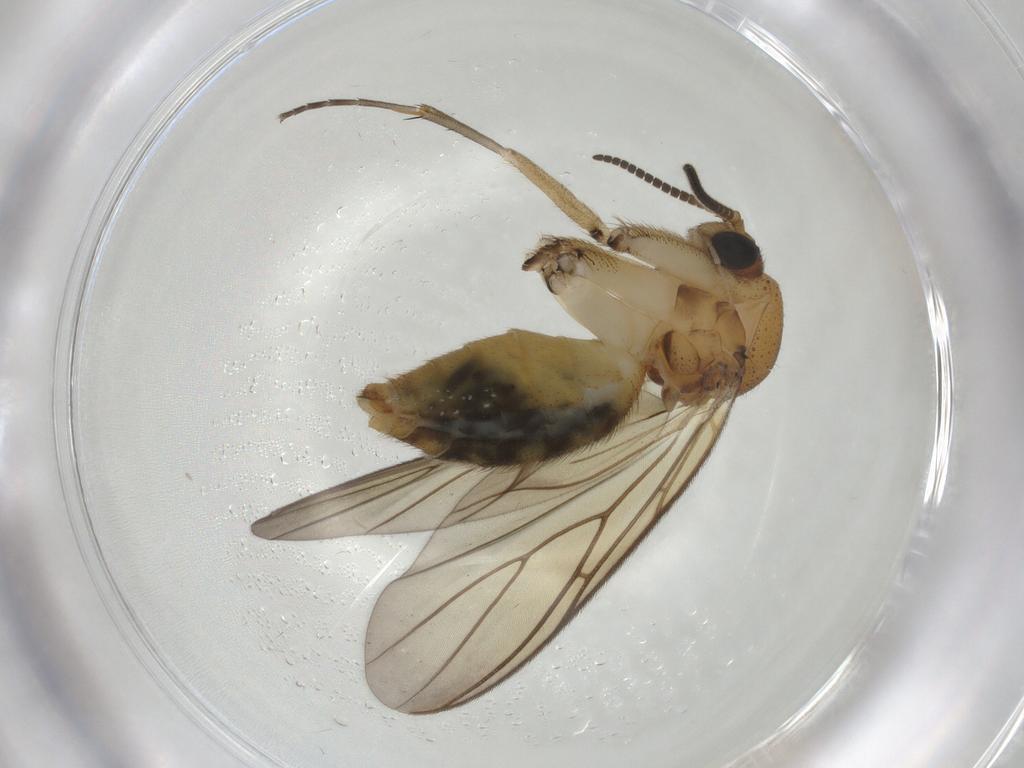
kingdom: Animalia
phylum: Arthropoda
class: Insecta
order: Diptera
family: Mycetophilidae
